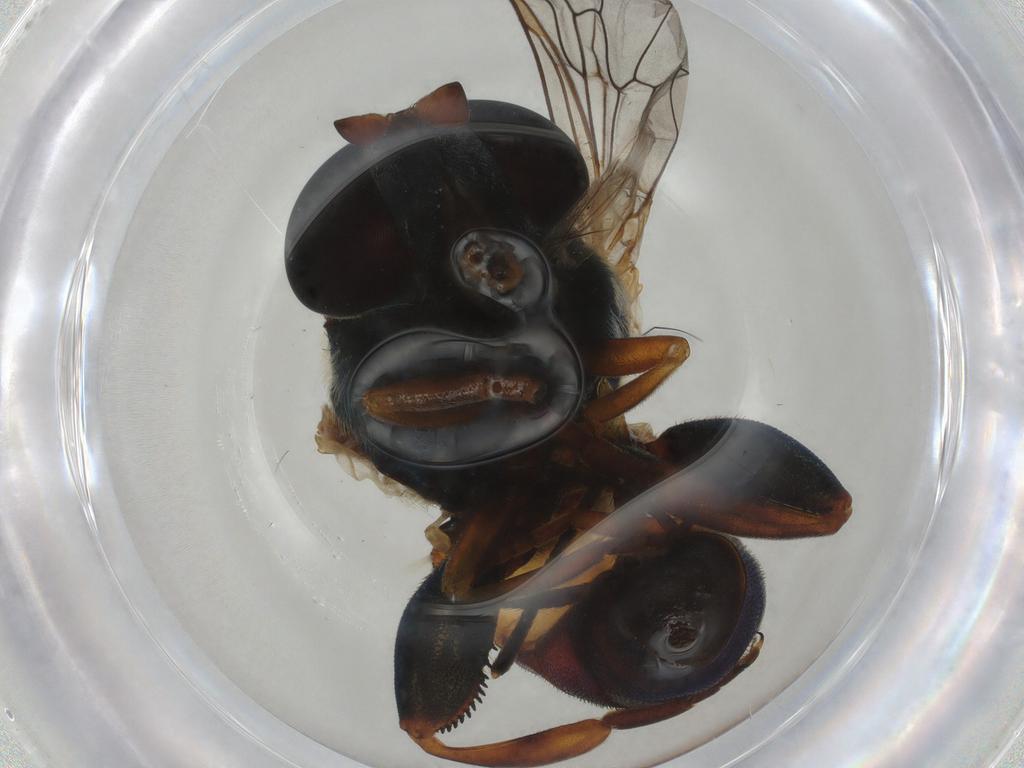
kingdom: Animalia
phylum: Arthropoda
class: Insecta
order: Diptera
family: Syrphidae
